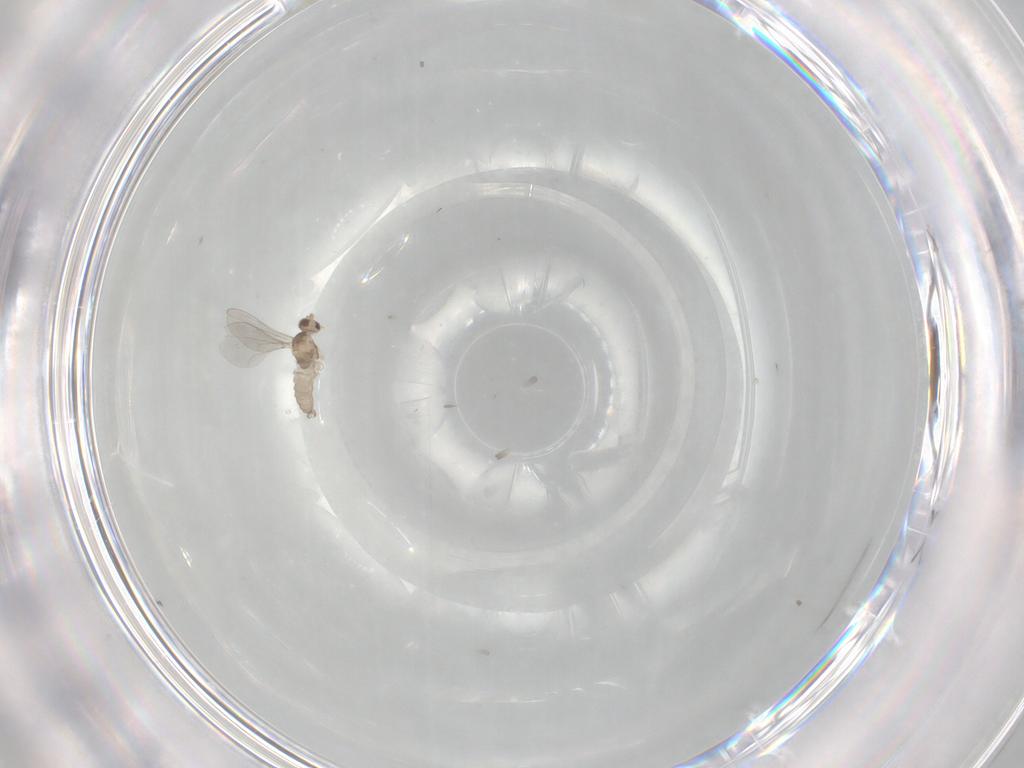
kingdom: Animalia
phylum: Arthropoda
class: Insecta
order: Diptera
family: Cecidomyiidae
